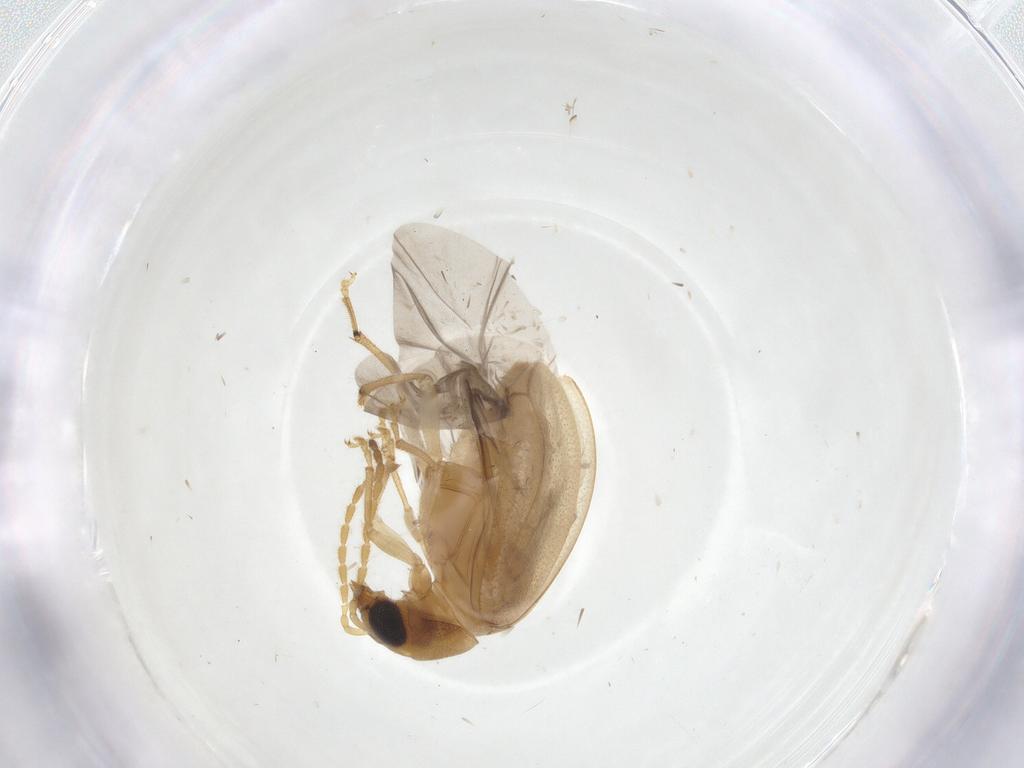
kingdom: Animalia
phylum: Arthropoda
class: Insecta
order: Coleoptera
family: Chrysomelidae
